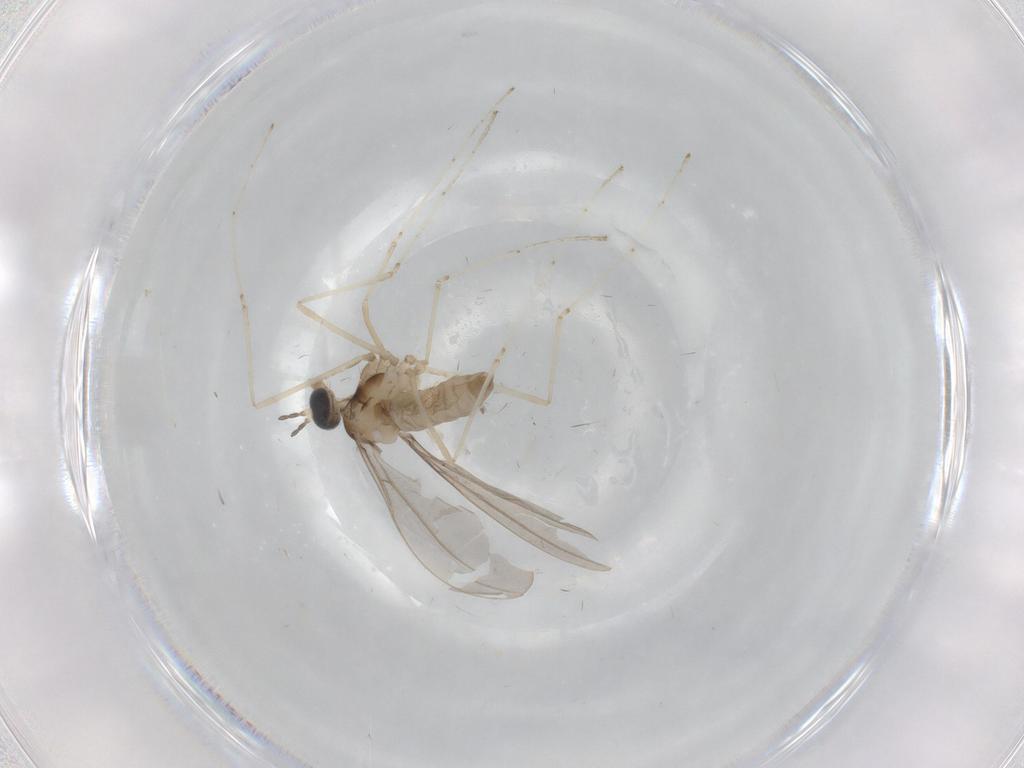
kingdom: Animalia
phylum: Arthropoda
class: Insecta
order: Diptera
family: Cecidomyiidae
